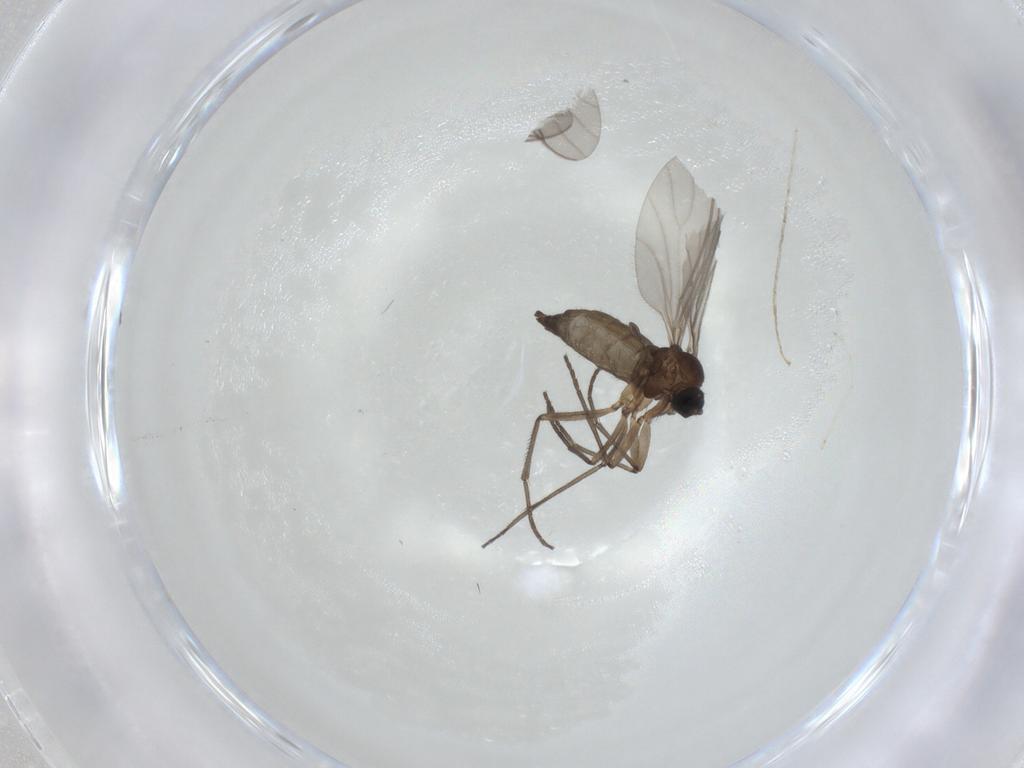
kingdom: Animalia
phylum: Arthropoda
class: Insecta
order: Diptera
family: Sciaridae
